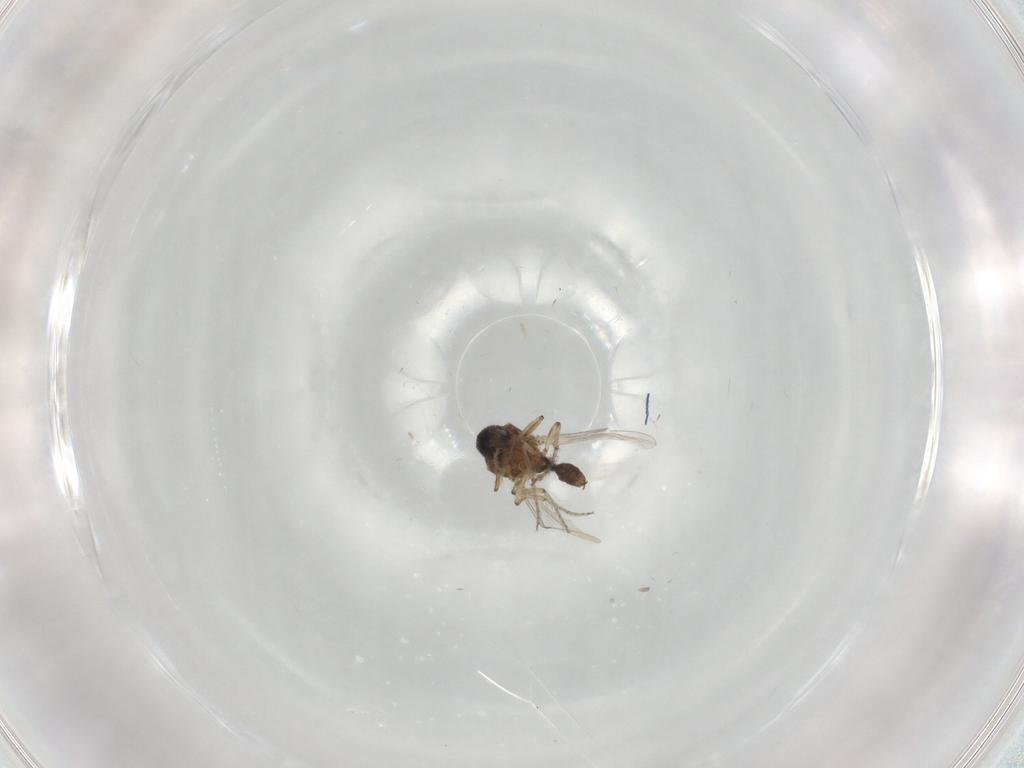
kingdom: Animalia
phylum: Arthropoda
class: Insecta
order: Diptera
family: Ceratopogonidae
